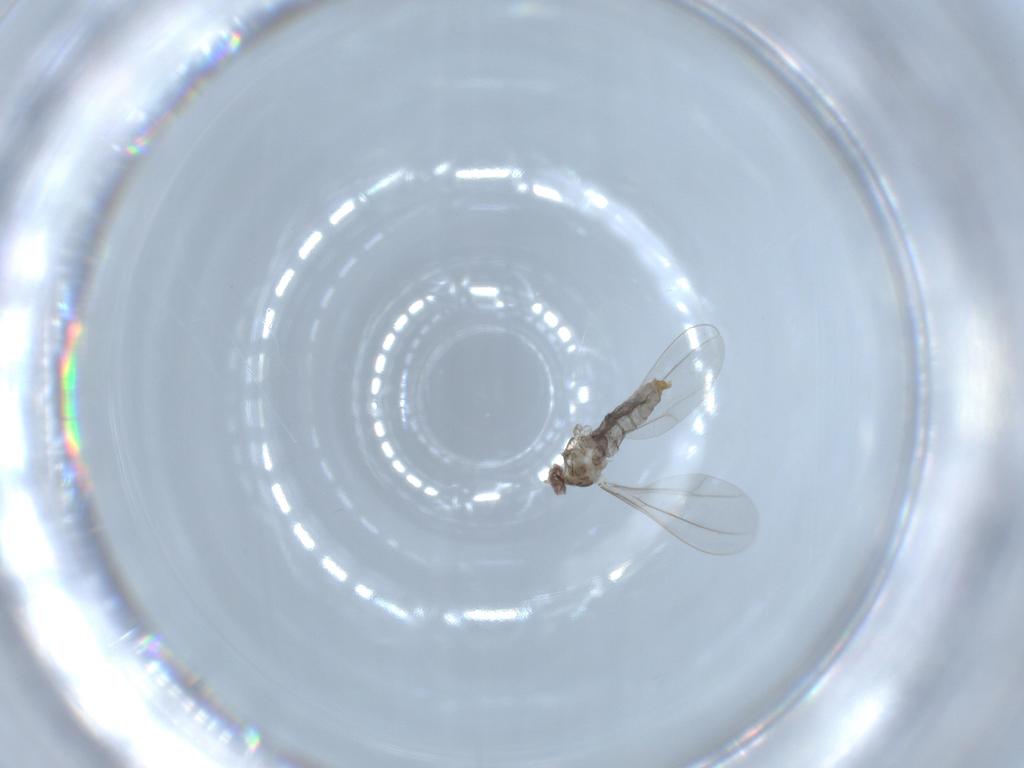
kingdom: Animalia
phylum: Arthropoda
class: Insecta
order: Diptera
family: Cecidomyiidae
